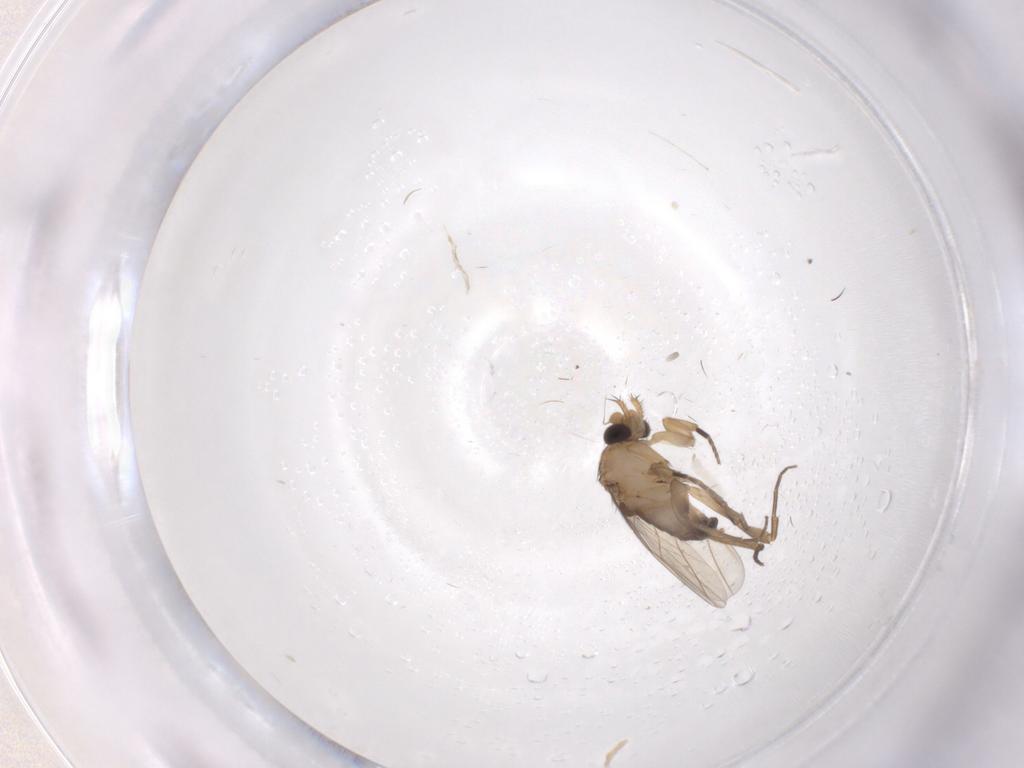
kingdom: Animalia
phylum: Arthropoda
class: Insecta
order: Diptera
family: Phoridae
